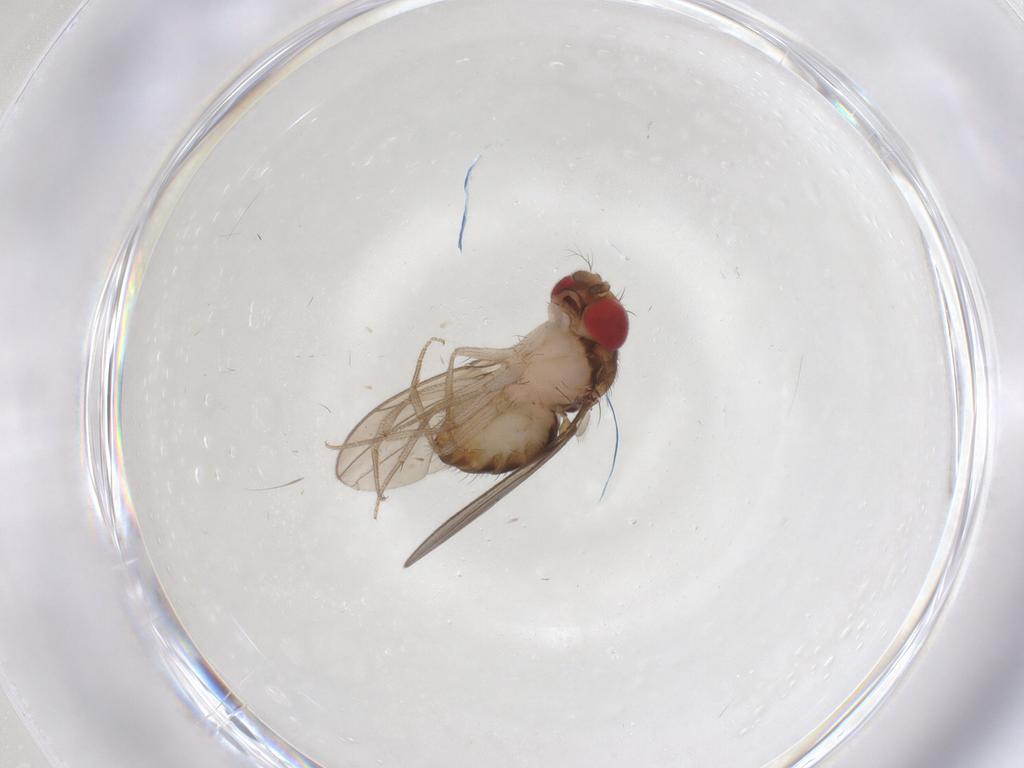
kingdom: Animalia
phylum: Arthropoda
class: Insecta
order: Diptera
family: Drosophilidae
